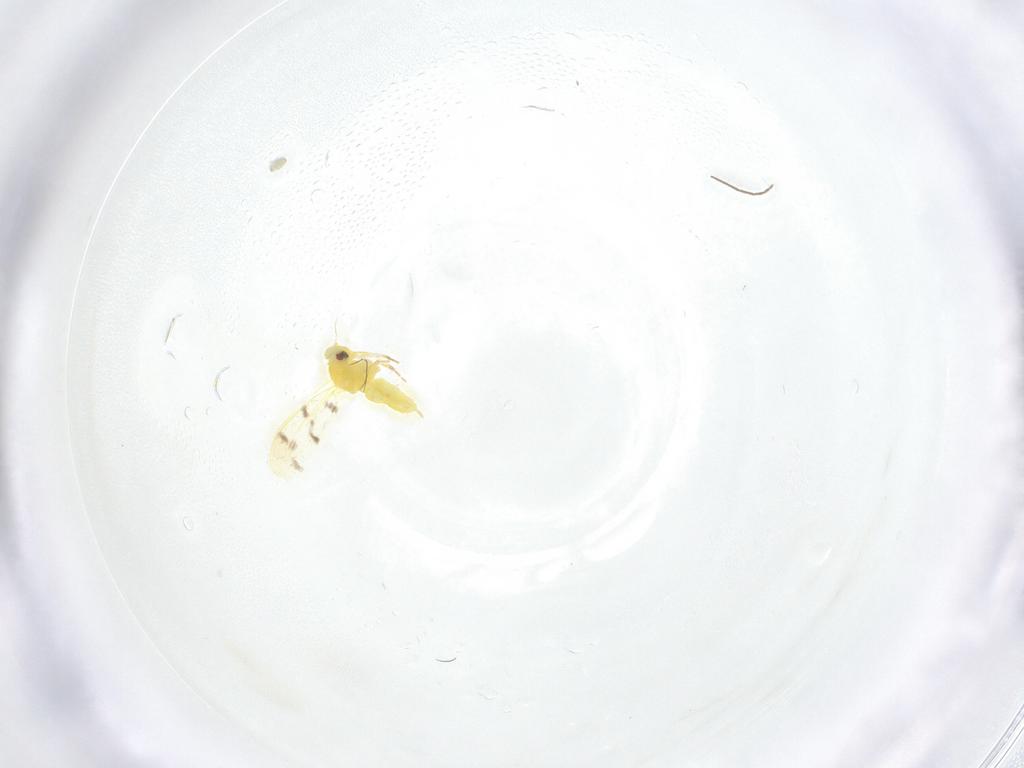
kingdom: Animalia
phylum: Arthropoda
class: Insecta
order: Hemiptera
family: Aleyrodidae
